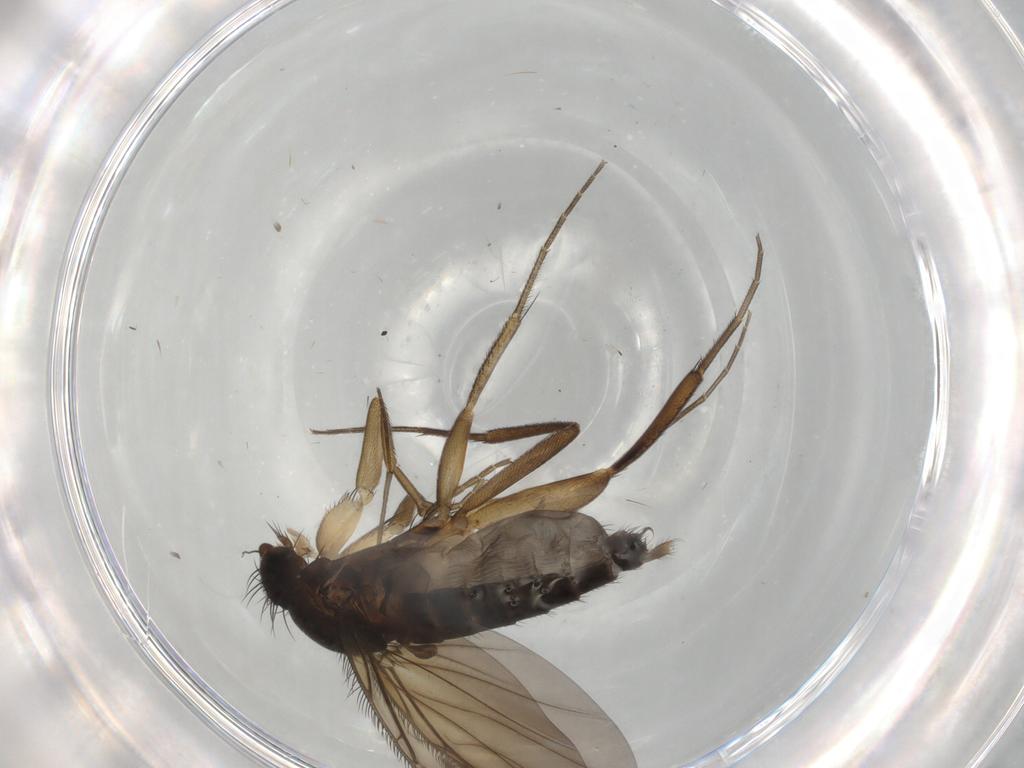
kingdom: Animalia
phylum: Arthropoda
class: Insecta
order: Diptera
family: Phoridae
